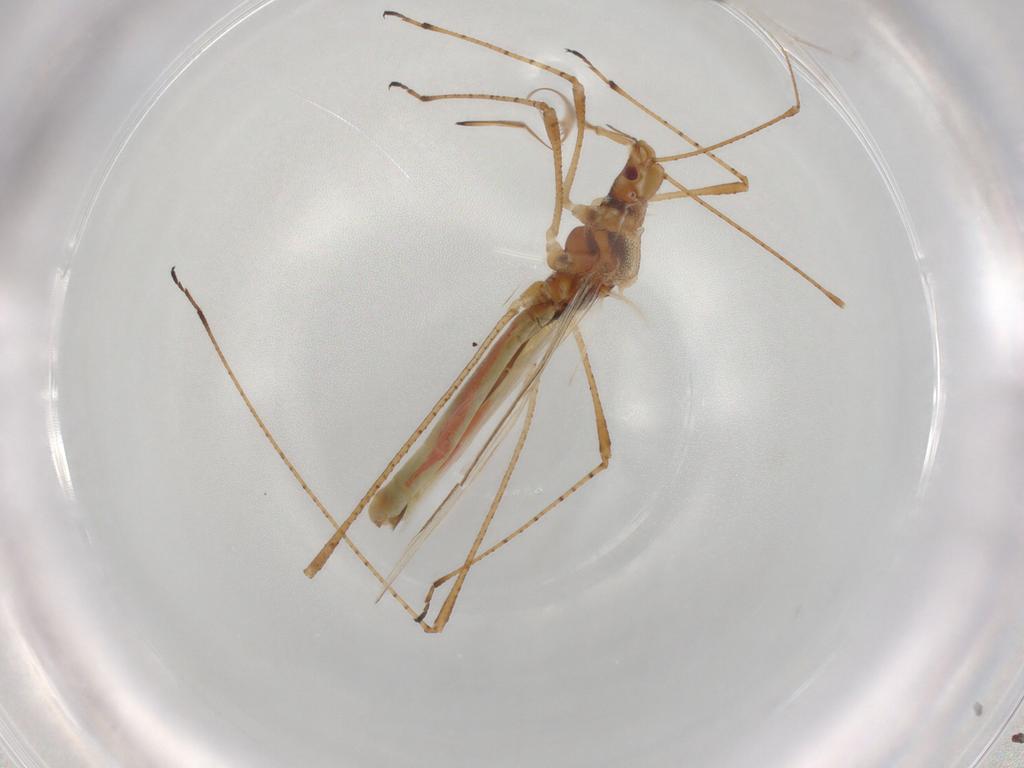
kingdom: Animalia
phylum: Arthropoda
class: Insecta
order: Hemiptera
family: Cymidae
